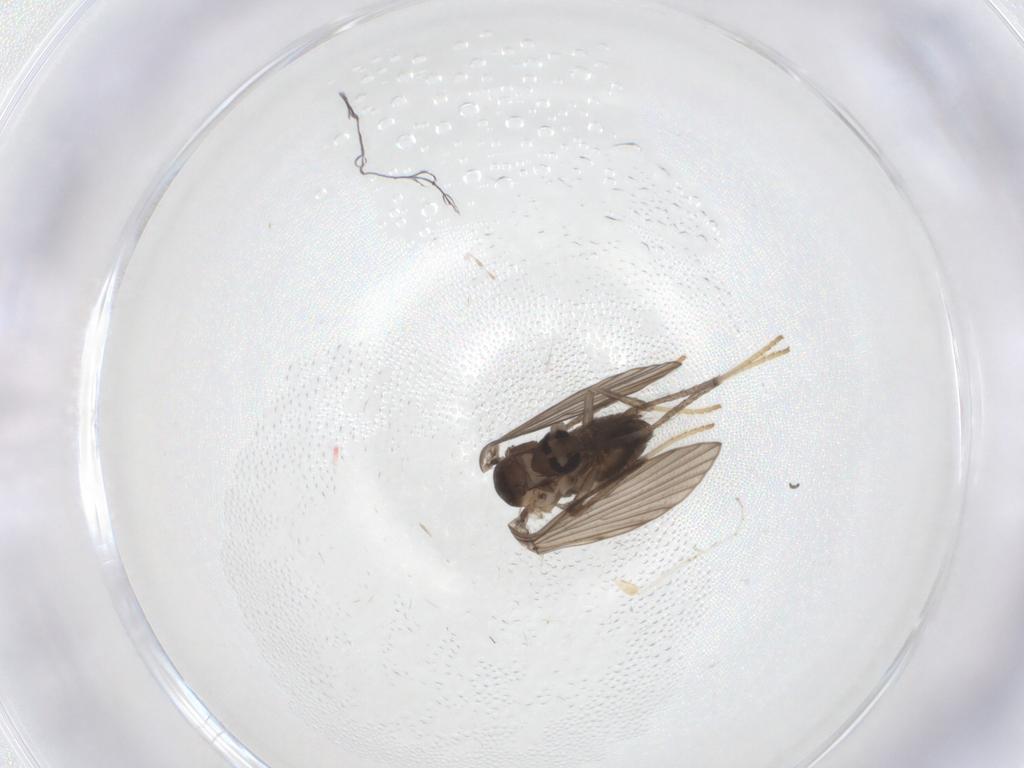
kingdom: Animalia
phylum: Arthropoda
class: Insecta
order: Diptera
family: Psychodidae
